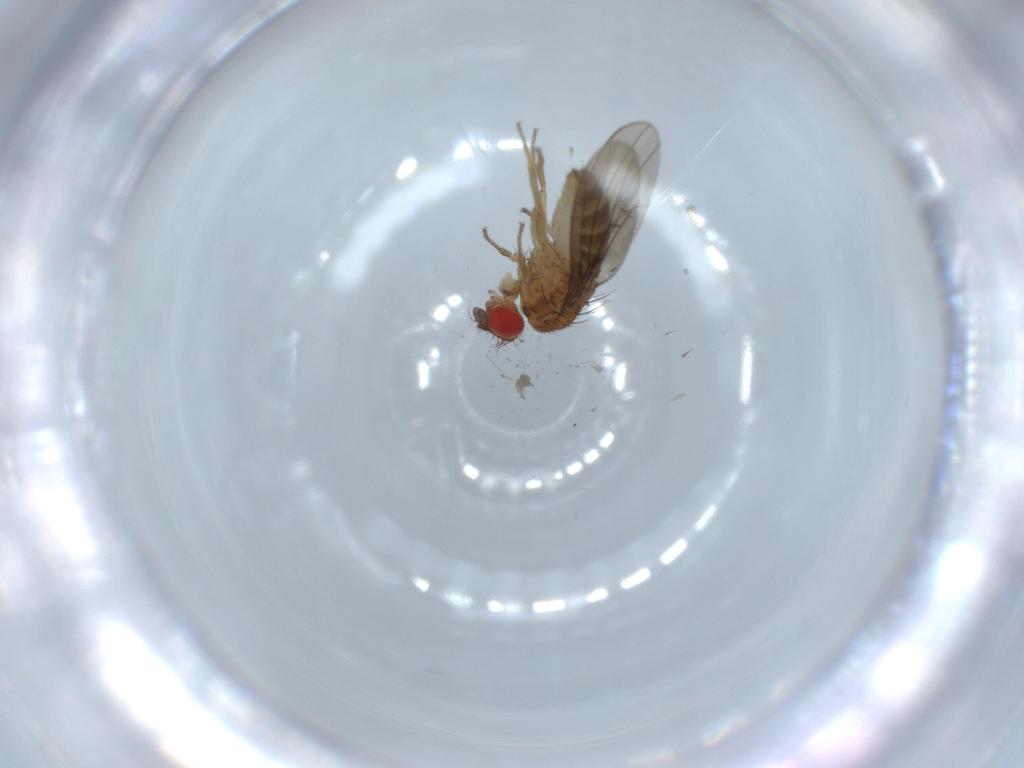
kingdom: Animalia
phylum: Arthropoda
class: Insecta
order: Diptera
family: Drosophilidae
